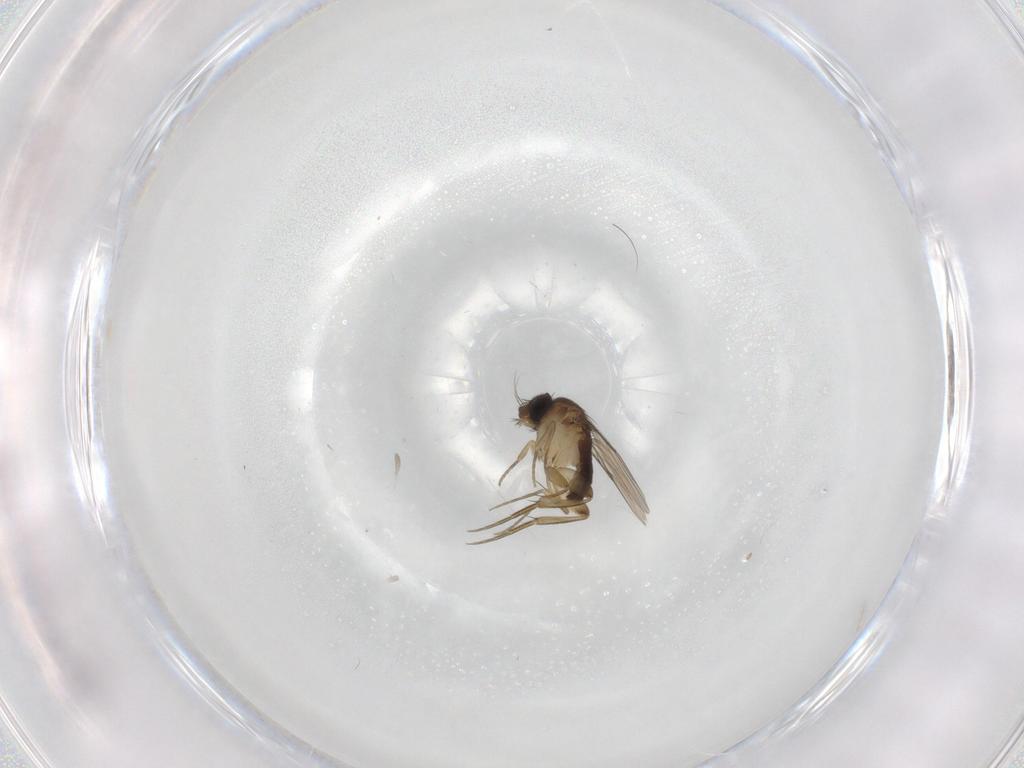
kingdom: Animalia
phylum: Arthropoda
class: Insecta
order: Diptera
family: Phoridae
